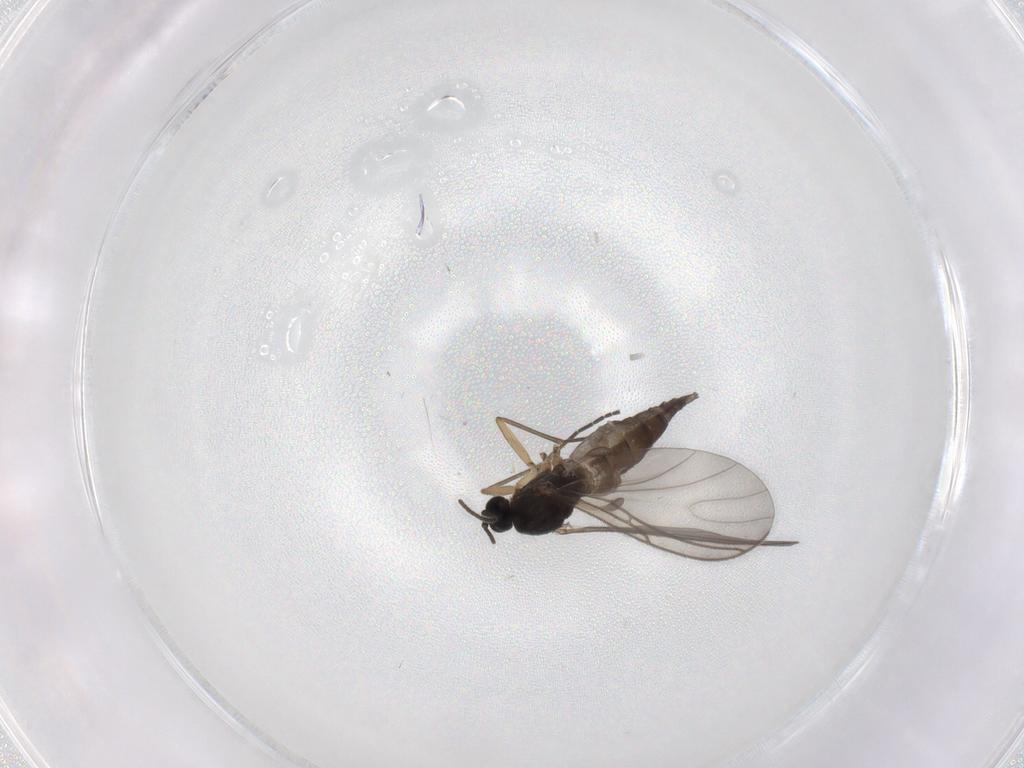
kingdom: Animalia
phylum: Arthropoda
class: Insecta
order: Diptera
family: Sciaridae
